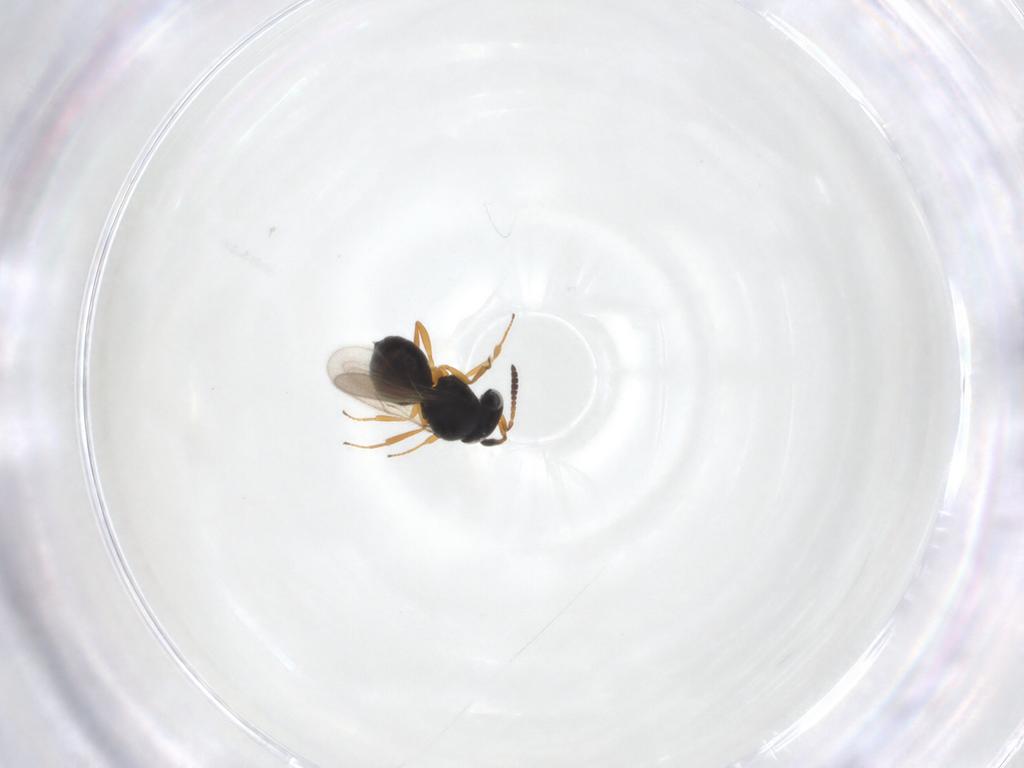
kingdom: Animalia
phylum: Arthropoda
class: Insecta
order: Hymenoptera
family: Scelionidae
